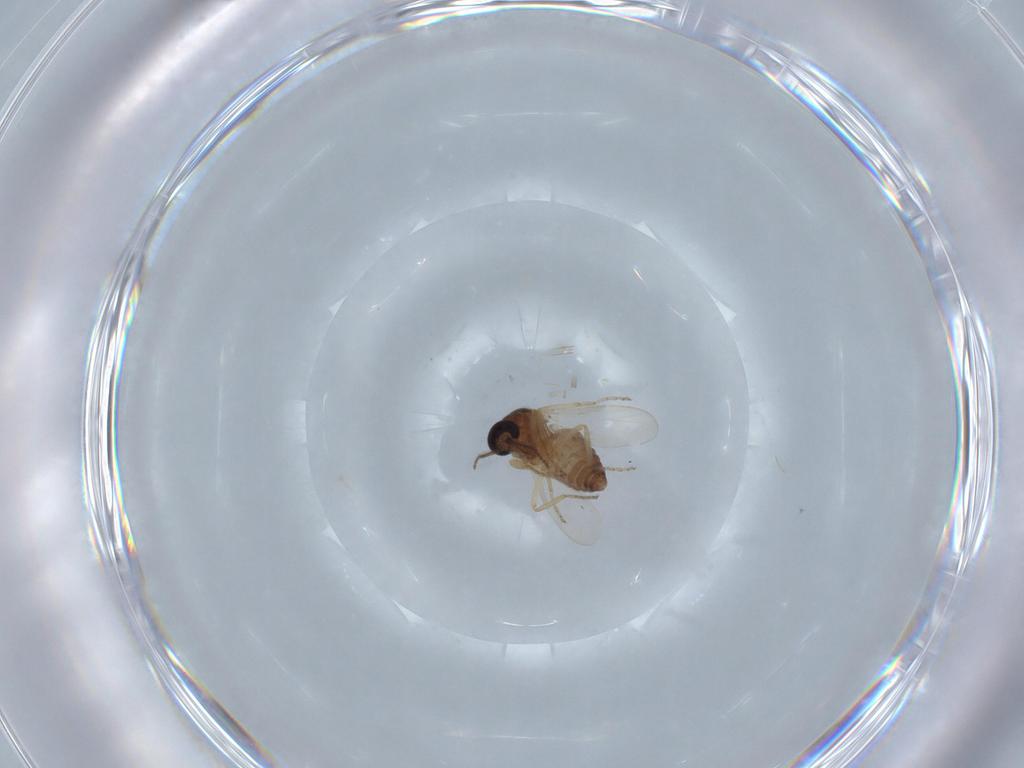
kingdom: Animalia
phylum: Arthropoda
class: Insecta
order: Diptera
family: Ceratopogonidae
